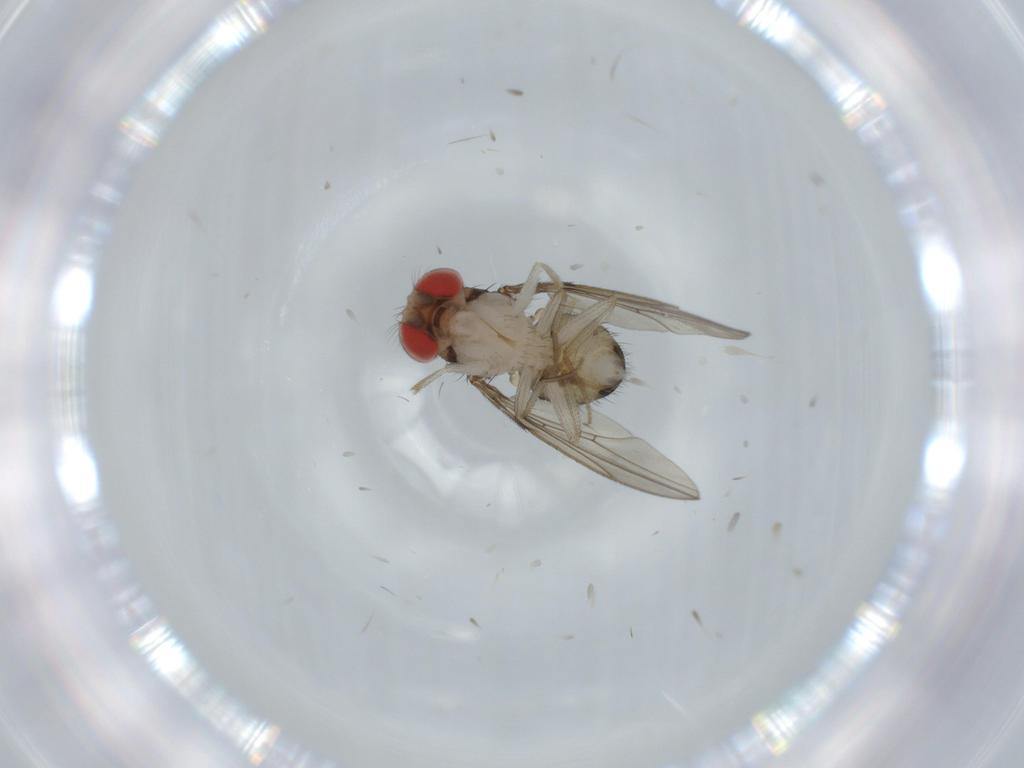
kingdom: Animalia
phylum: Arthropoda
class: Insecta
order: Diptera
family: Drosophilidae
